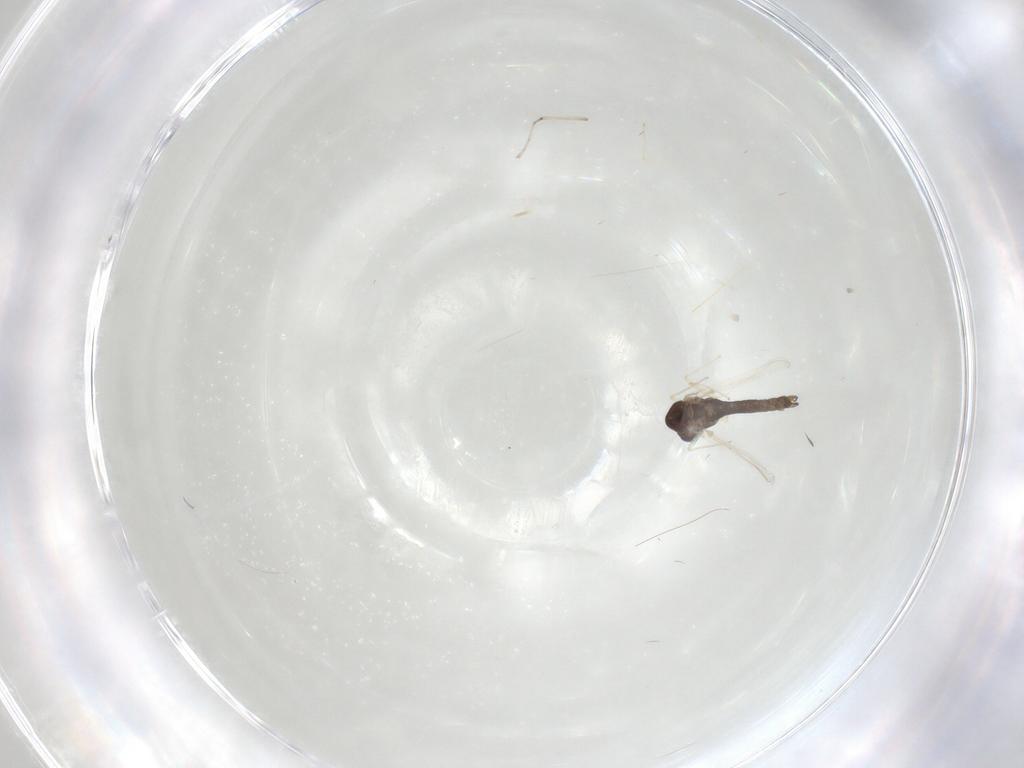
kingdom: Animalia
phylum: Arthropoda
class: Insecta
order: Diptera
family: Chironomidae
